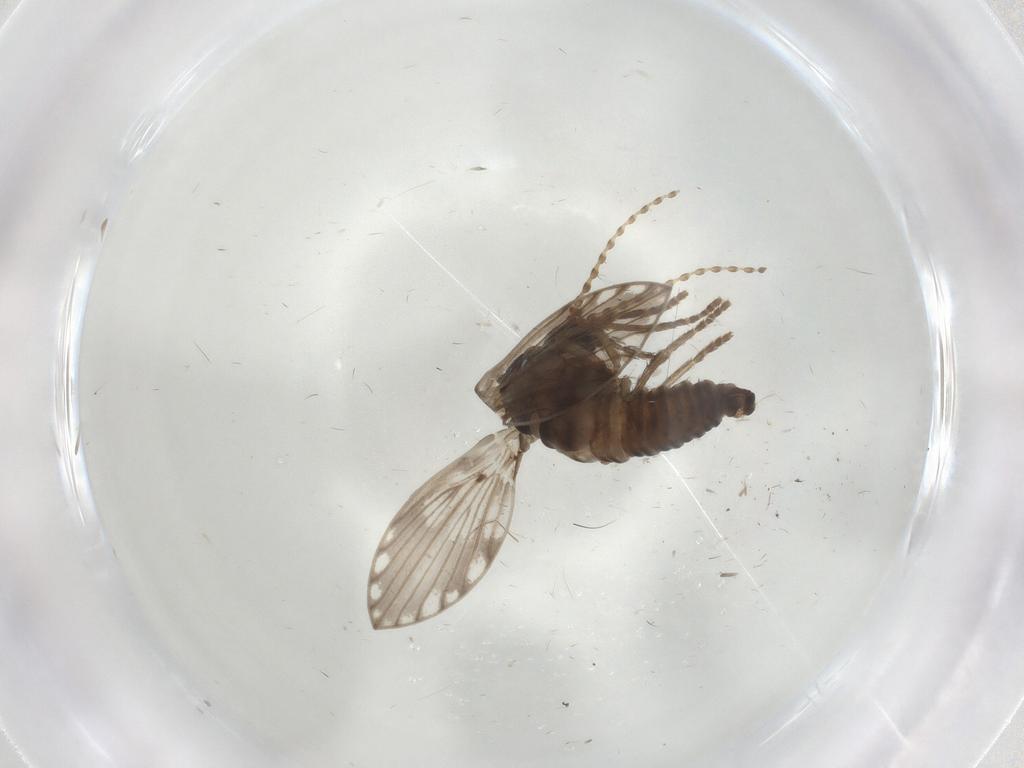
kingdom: Animalia
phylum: Arthropoda
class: Insecta
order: Diptera
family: Psychodidae
